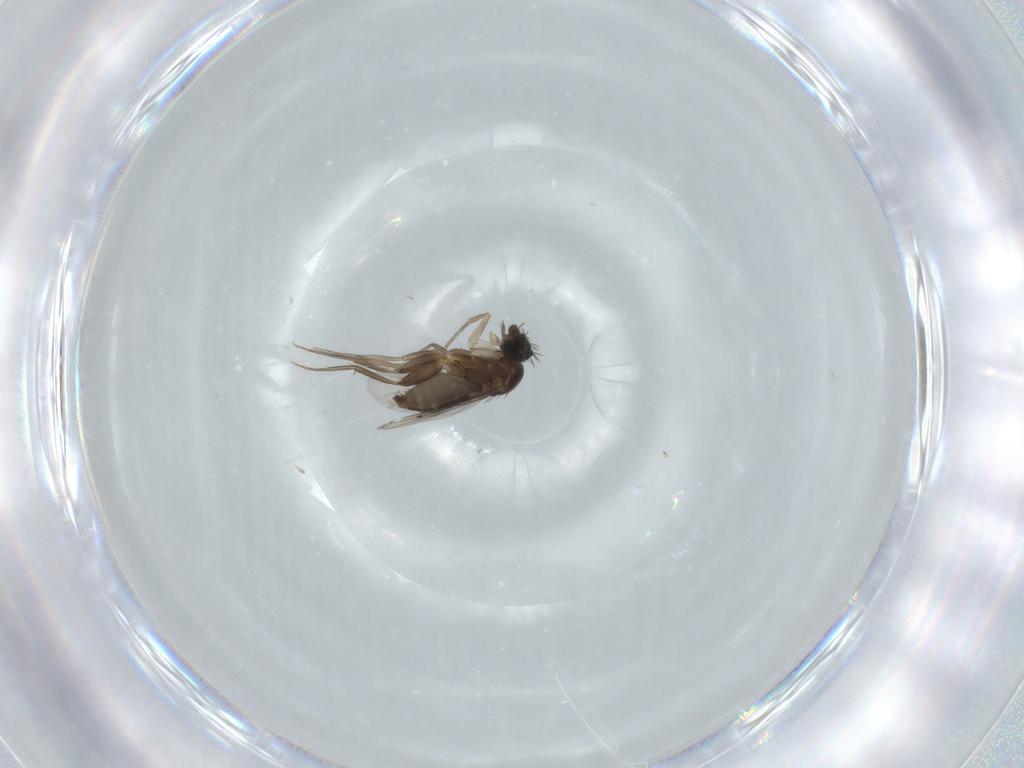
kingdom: Animalia
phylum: Arthropoda
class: Insecta
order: Diptera
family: Phoridae
